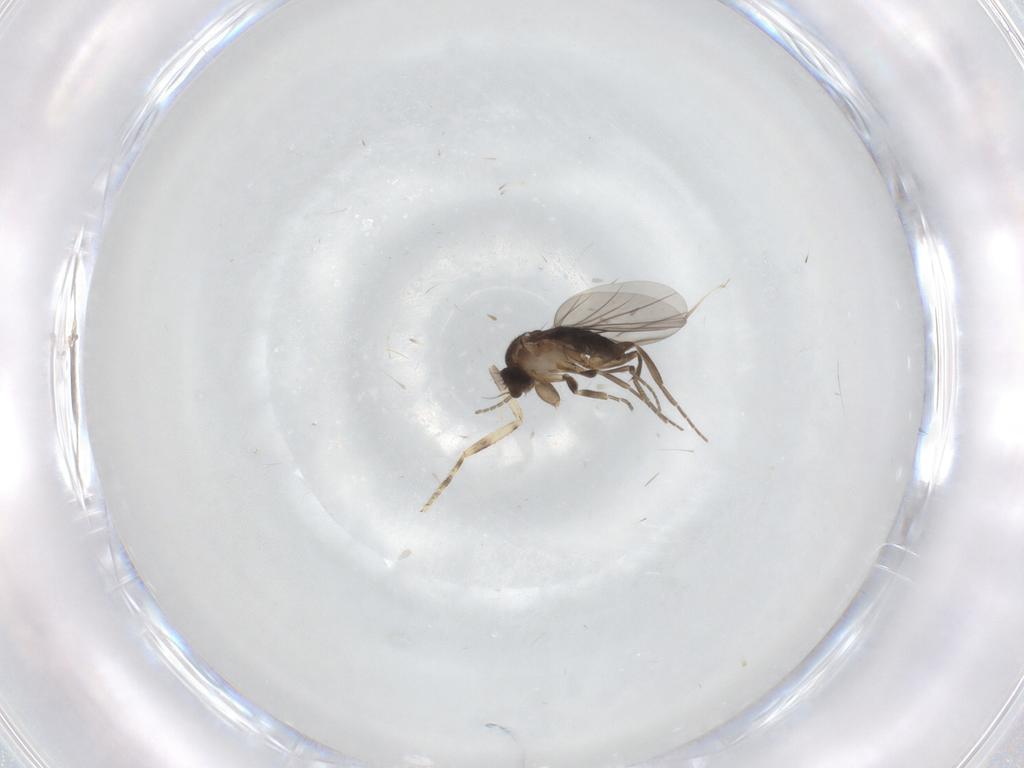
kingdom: Animalia
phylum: Arthropoda
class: Insecta
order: Diptera
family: Ceratopogonidae
